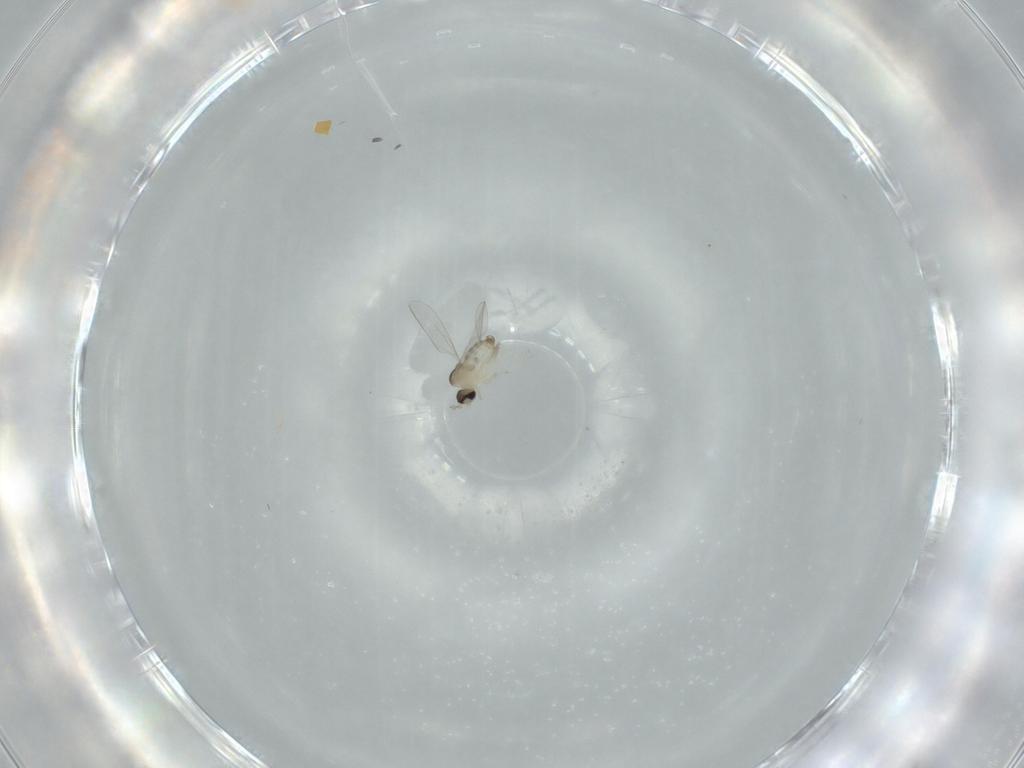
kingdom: Animalia
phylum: Arthropoda
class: Insecta
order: Diptera
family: Cecidomyiidae
